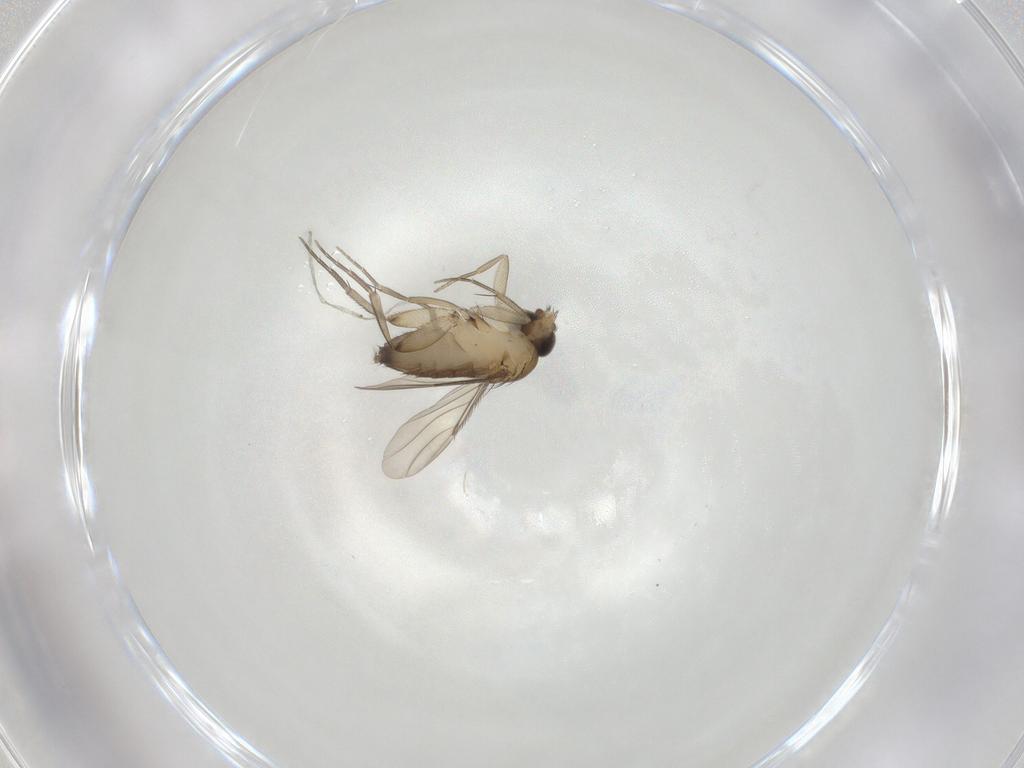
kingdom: Animalia
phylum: Arthropoda
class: Insecta
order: Diptera
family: Phoridae
